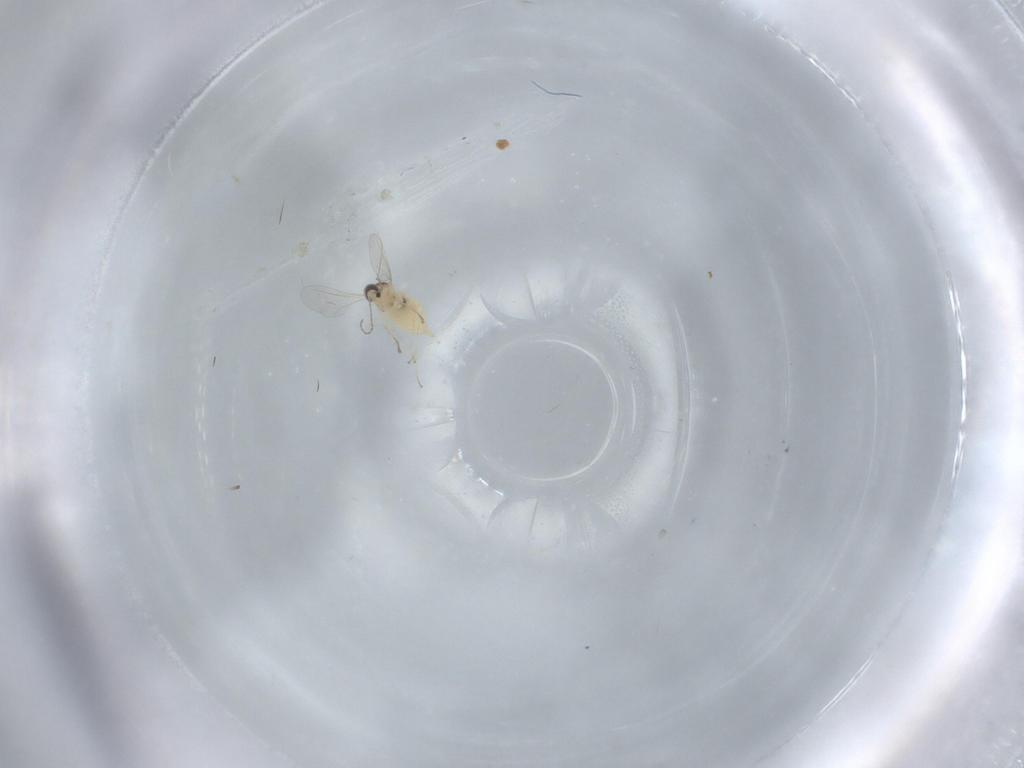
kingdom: Animalia
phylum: Arthropoda
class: Insecta
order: Diptera
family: Cecidomyiidae
